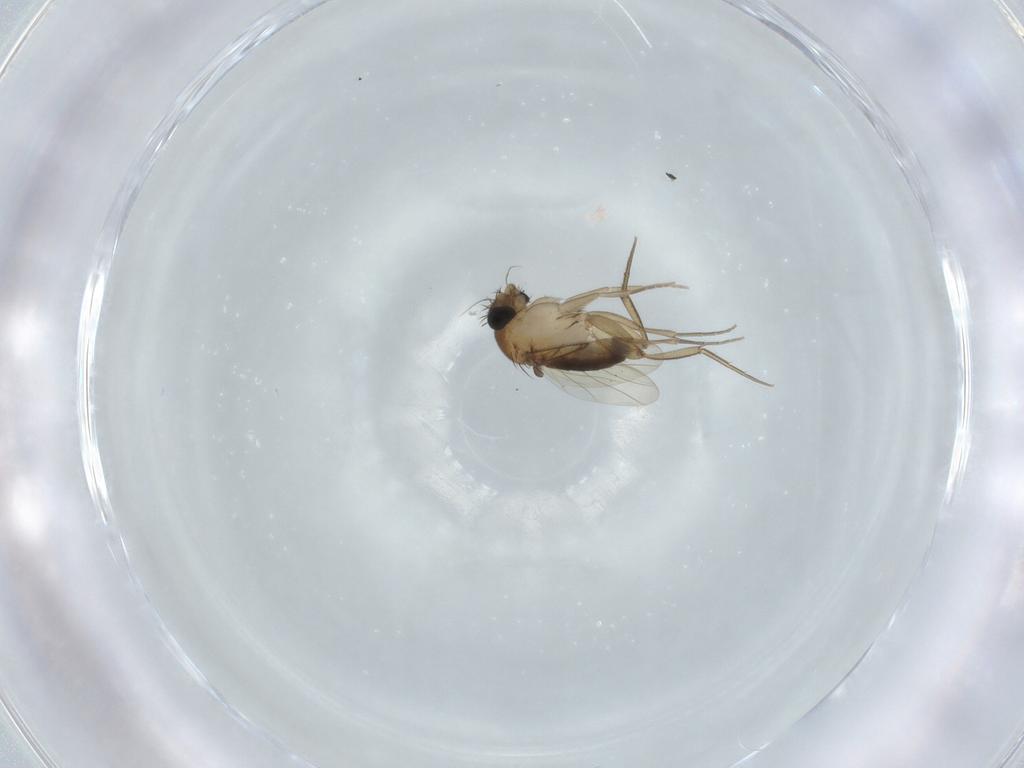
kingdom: Animalia
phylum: Arthropoda
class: Insecta
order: Diptera
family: Phoridae
